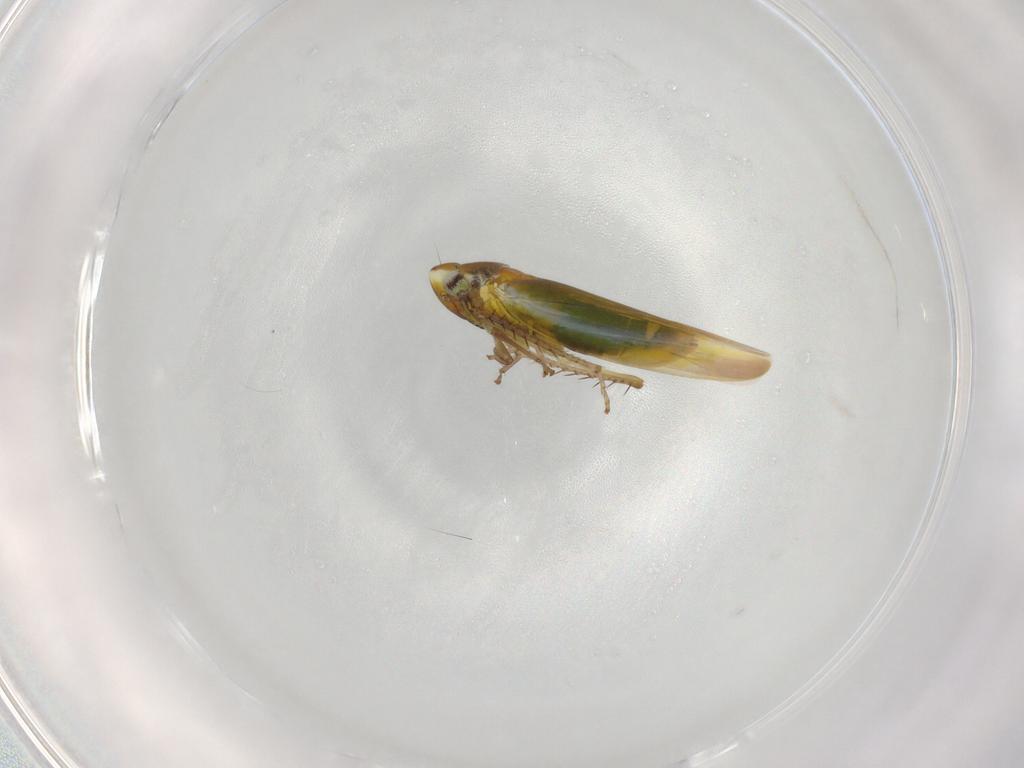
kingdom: Animalia
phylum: Arthropoda
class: Insecta
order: Hemiptera
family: Cicadellidae
